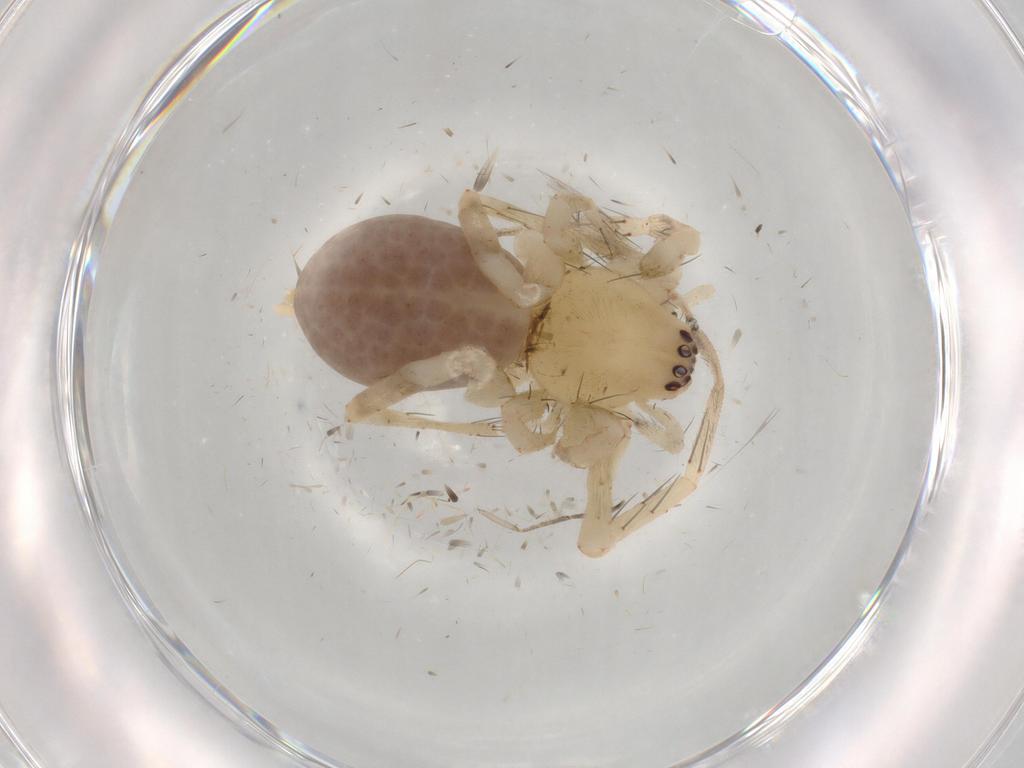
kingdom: Animalia
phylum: Arthropoda
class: Arachnida
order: Araneae
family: Anyphaenidae
